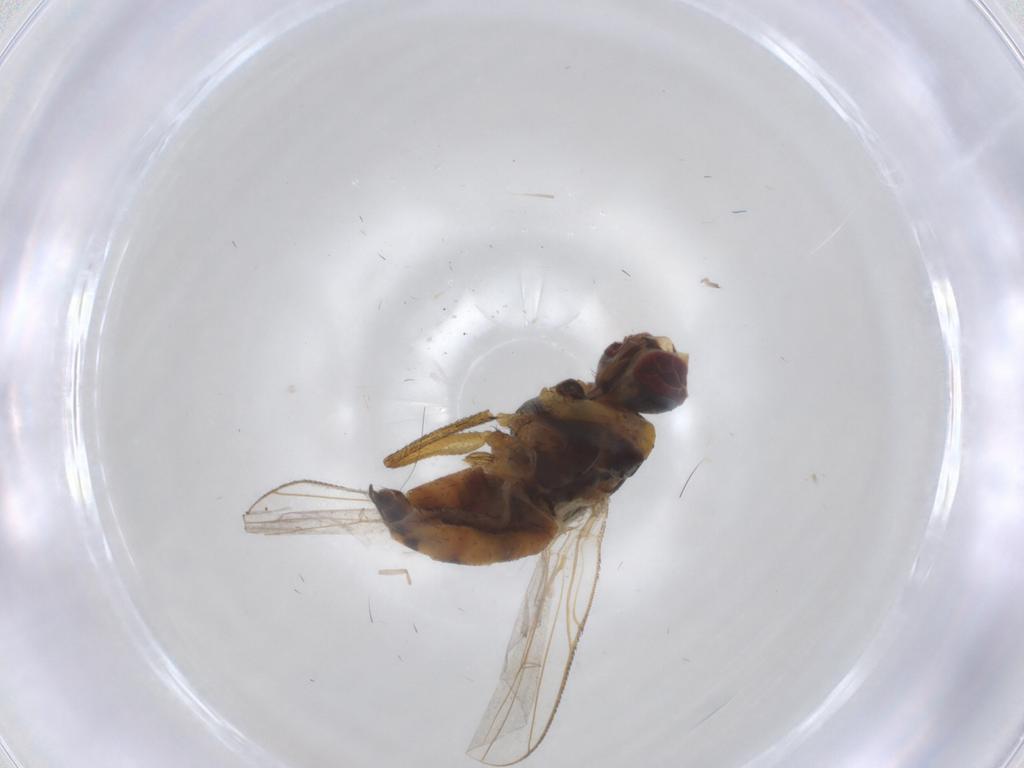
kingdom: Animalia
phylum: Arthropoda
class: Insecta
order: Diptera
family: Muscidae
